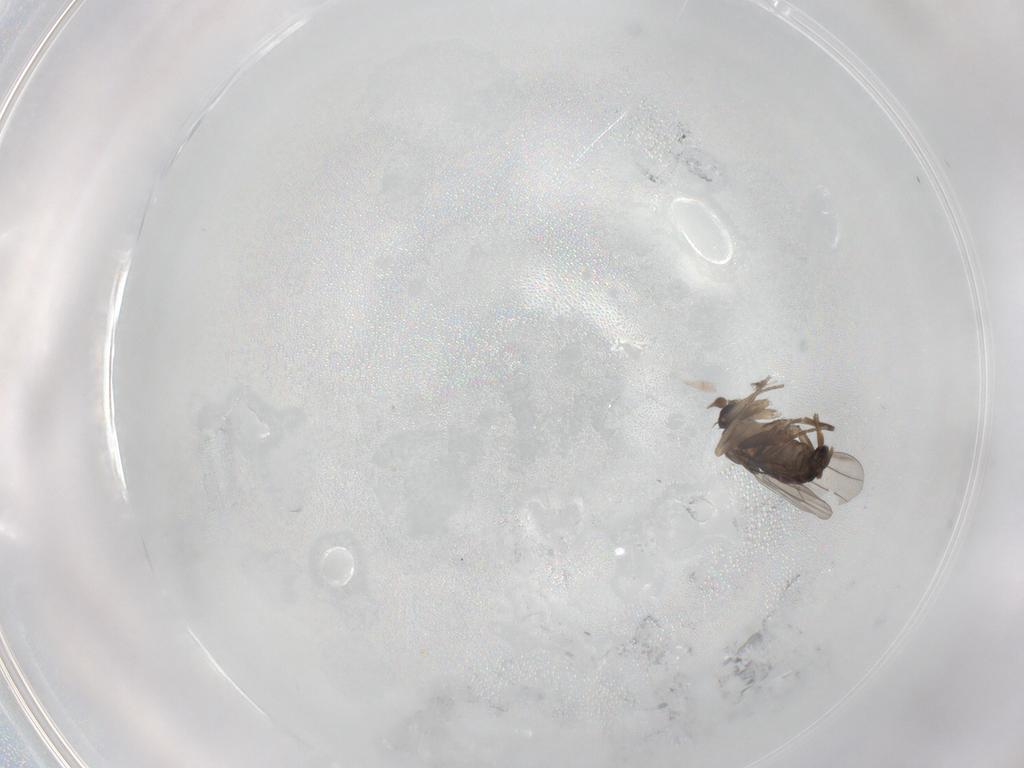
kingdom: Animalia
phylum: Arthropoda
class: Insecta
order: Diptera
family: Phoridae
